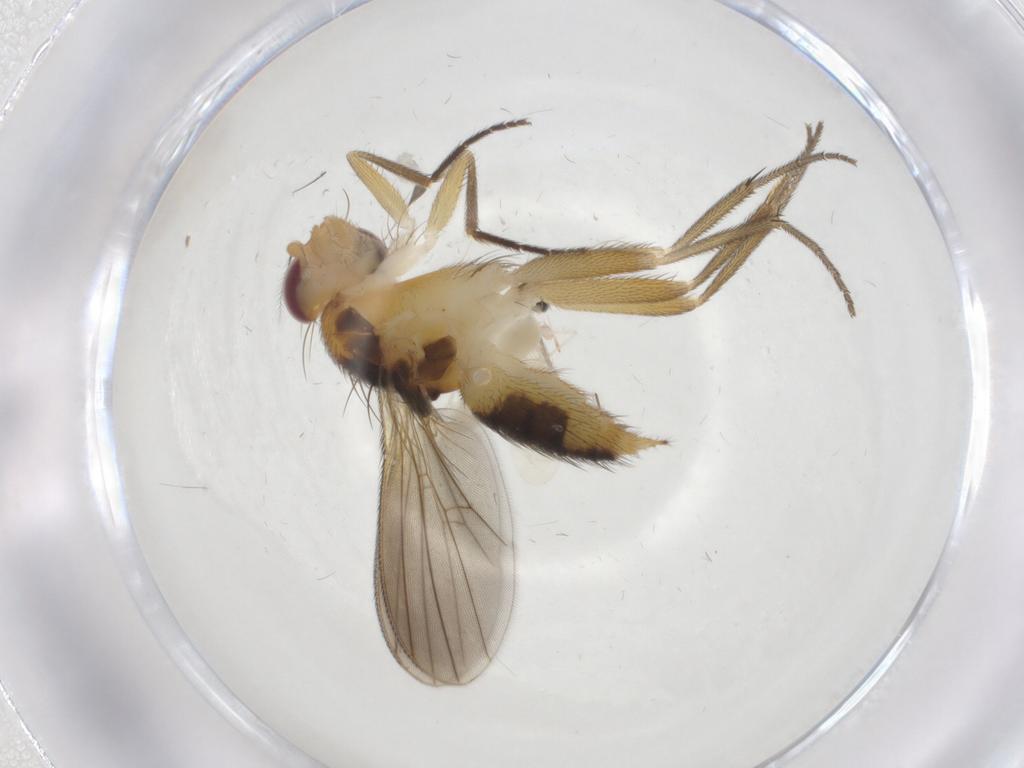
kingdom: Animalia
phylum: Arthropoda
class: Insecta
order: Diptera
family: Cecidomyiidae
